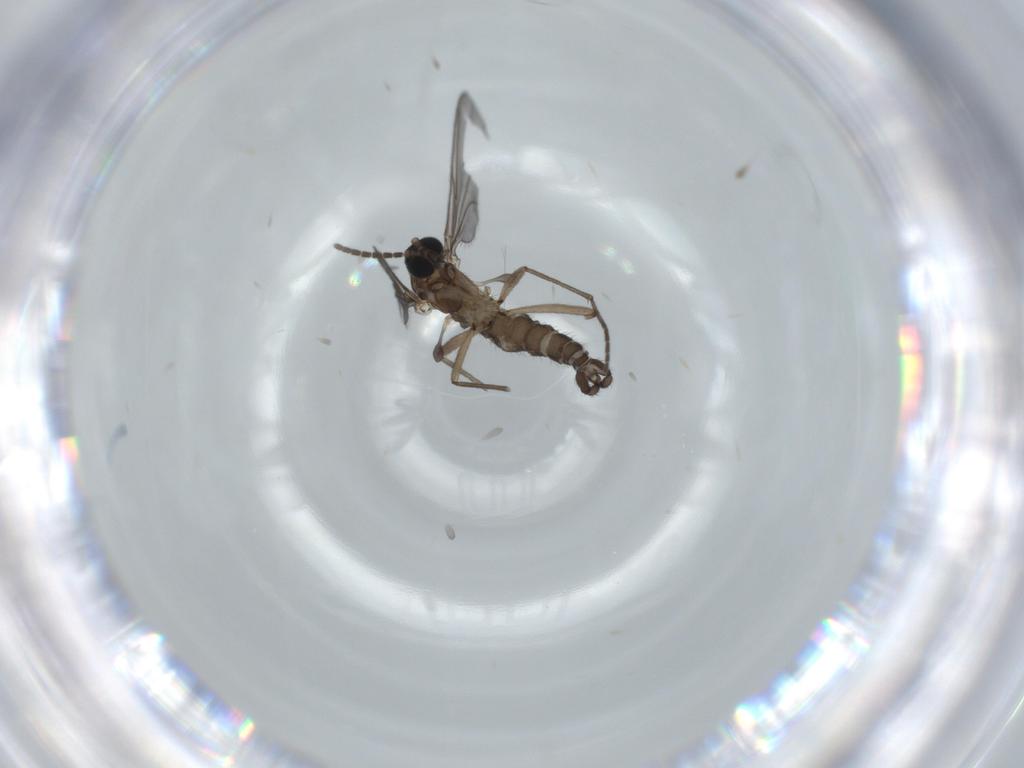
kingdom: Animalia
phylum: Arthropoda
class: Insecta
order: Diptera
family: Sciaridae
